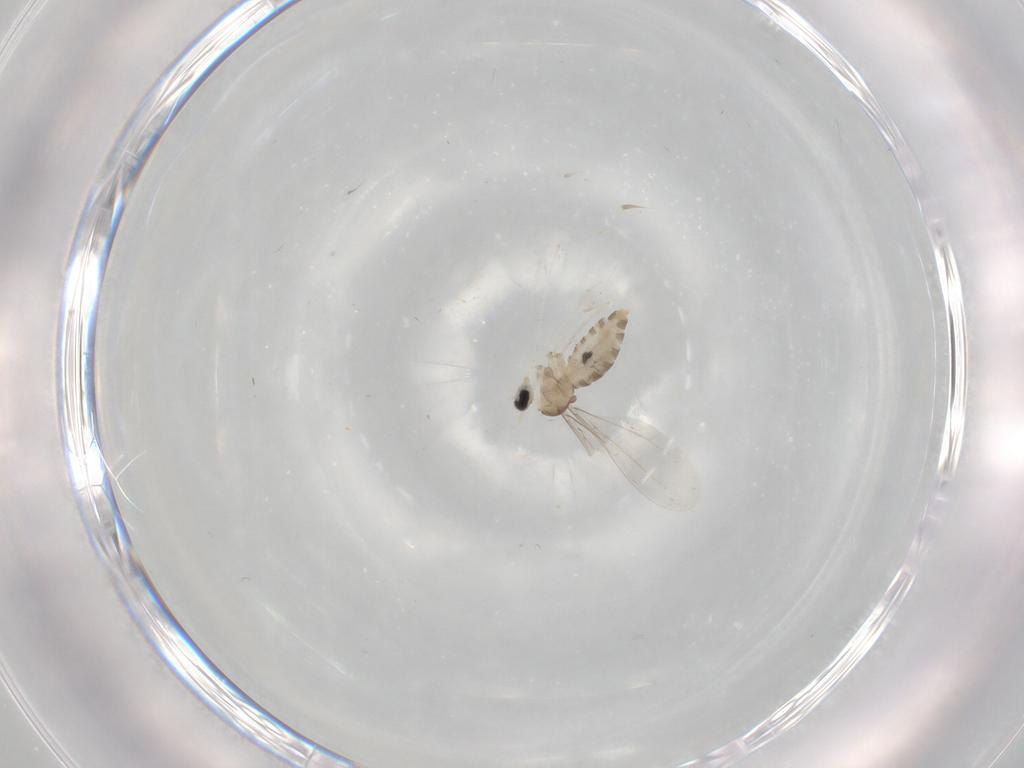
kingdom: Animalia
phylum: Arthropoda
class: Insecta
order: Diptera
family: Cecidomyiidae
